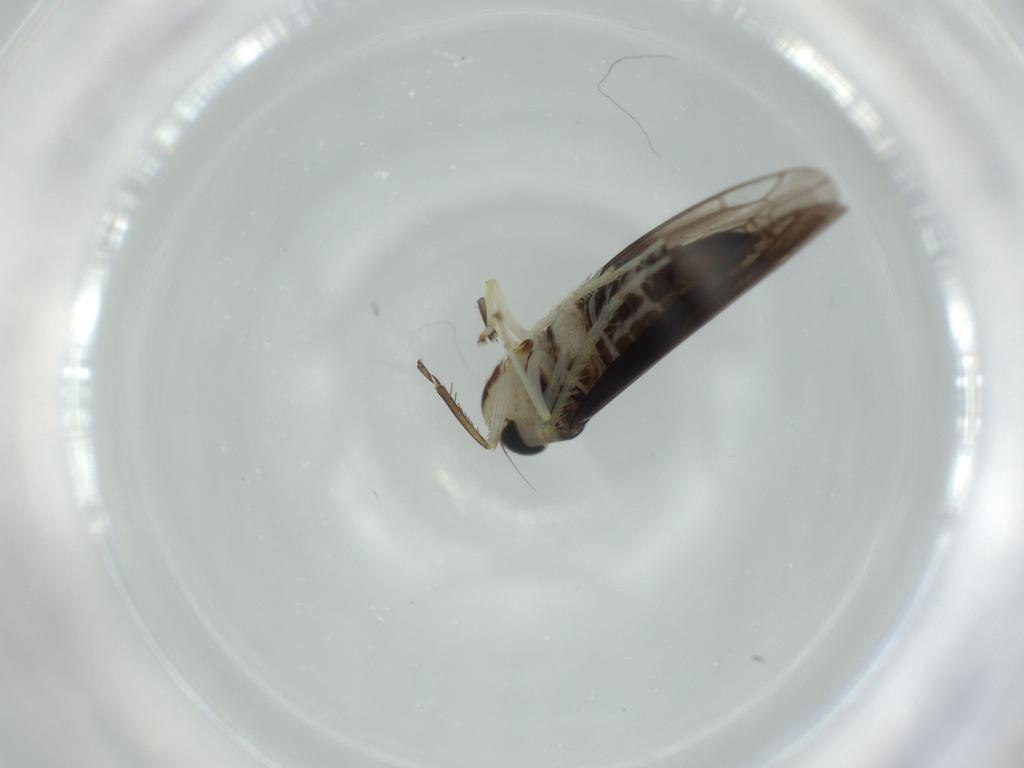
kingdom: Animalia
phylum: Arthropoda
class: Insecta
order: Hemiptera
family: Cicadellidae
